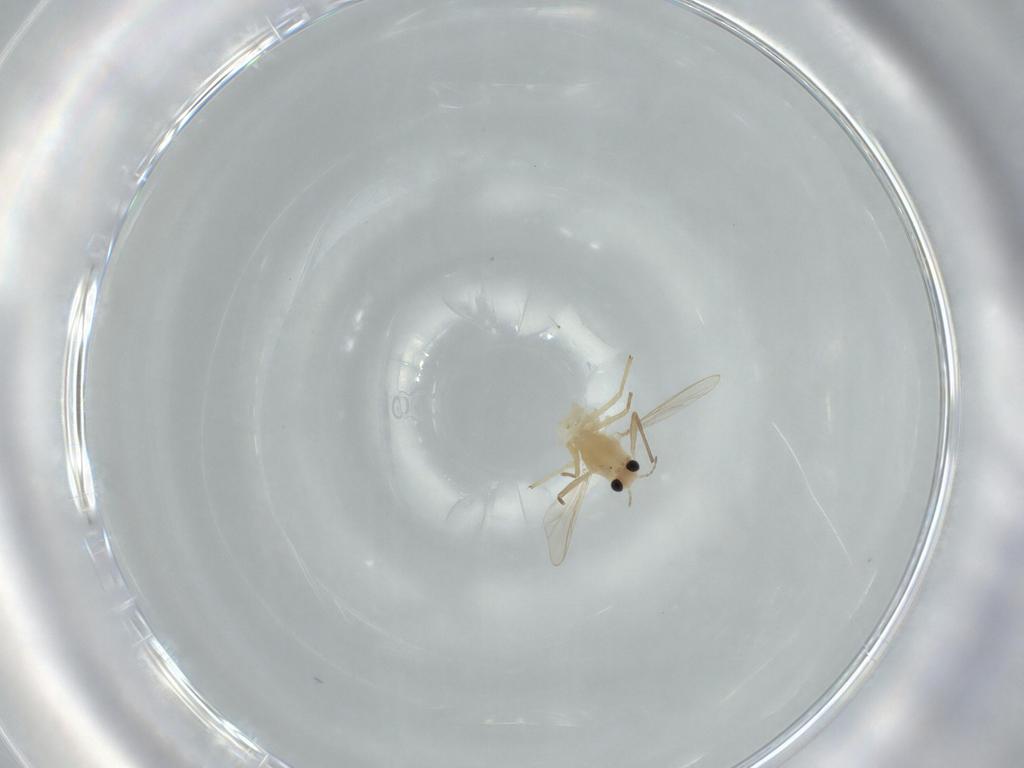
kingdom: Animalia
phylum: Arthropoda
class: Insecta
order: Diptera
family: Chironomidae
